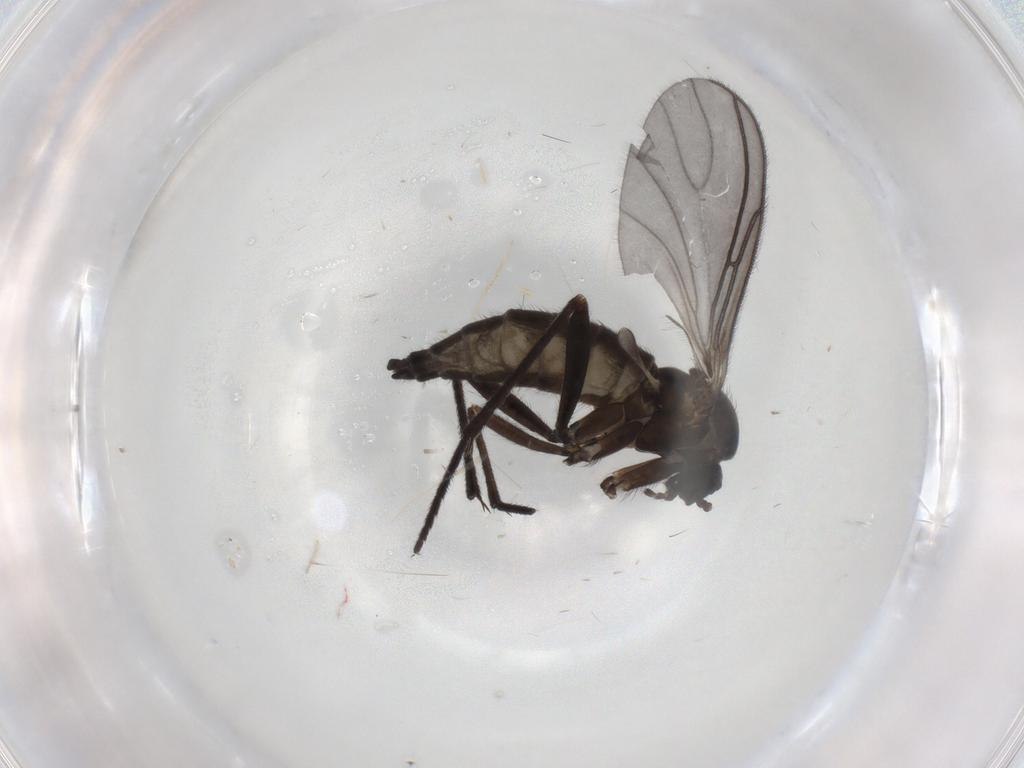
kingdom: Animalia
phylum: Arthropoda
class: Insecta
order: Diptera
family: Sciaridae
